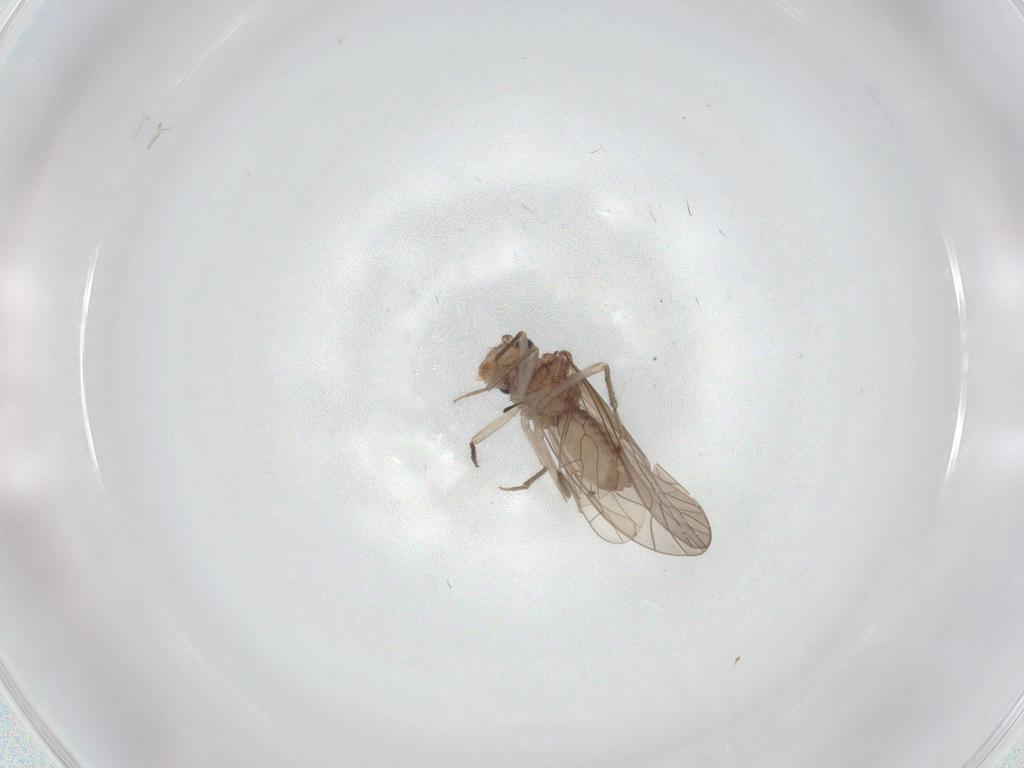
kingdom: Animalia
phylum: Arthropoda
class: Insecta
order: Psocodea
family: Caeciliusidae
